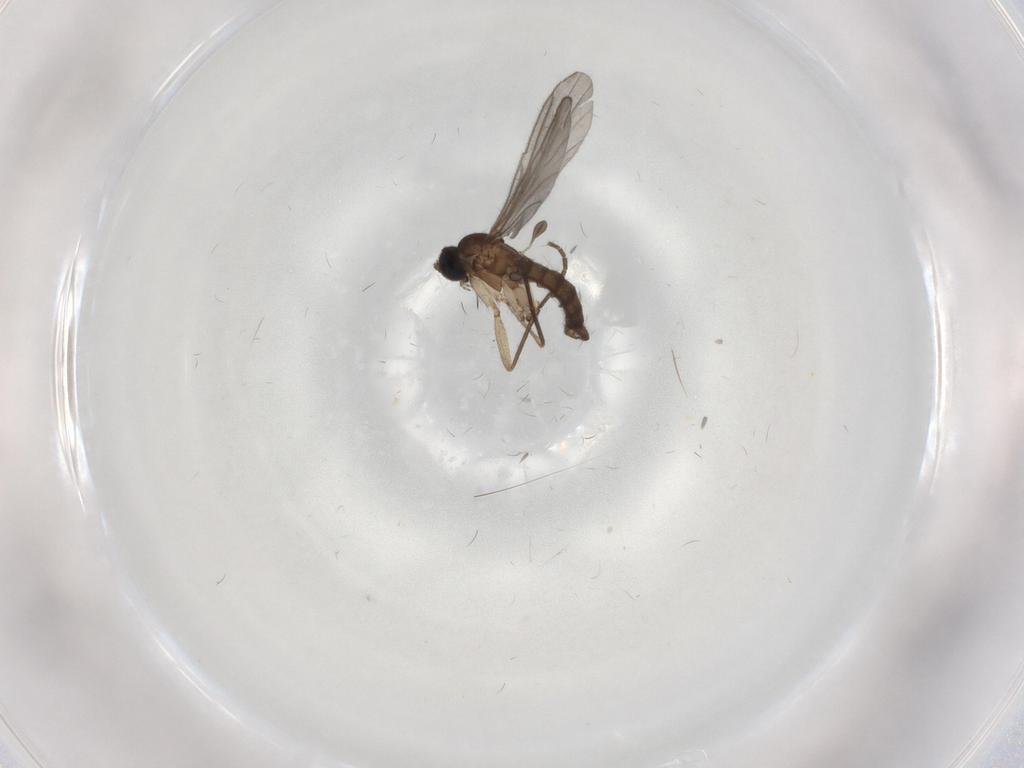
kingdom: Animalia
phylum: Arthropoda
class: Insecta
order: Diptera
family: Sciaridae
